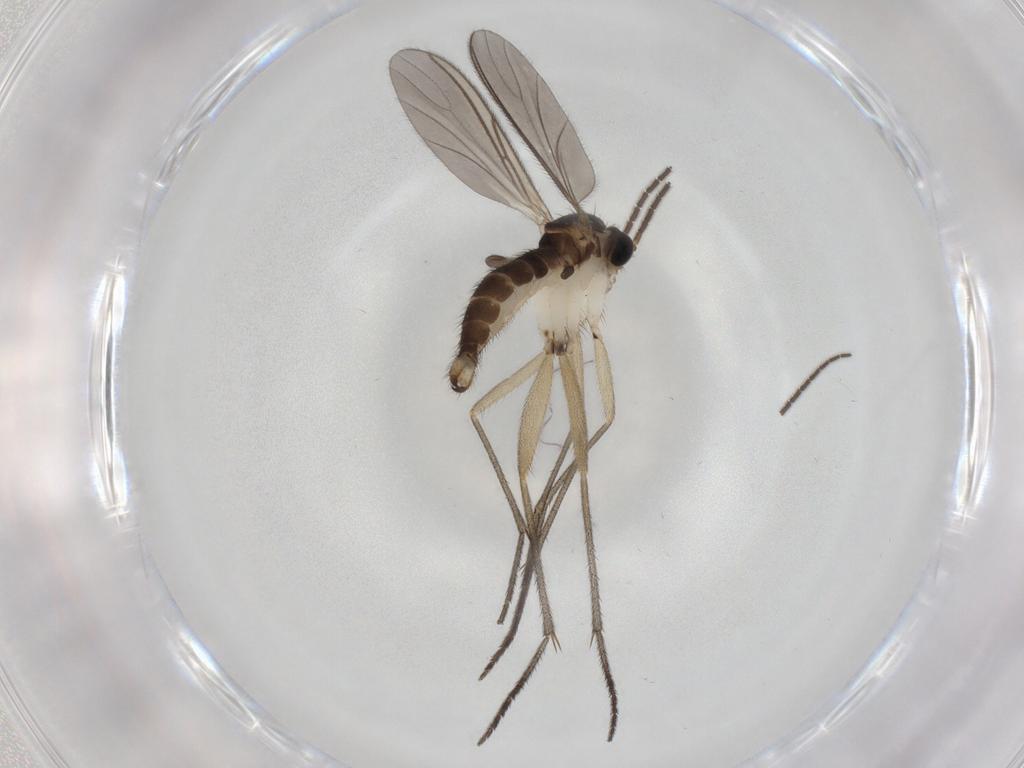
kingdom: Animalia
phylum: Arthropoda
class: Insecta
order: Diptera
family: Sciaridae
